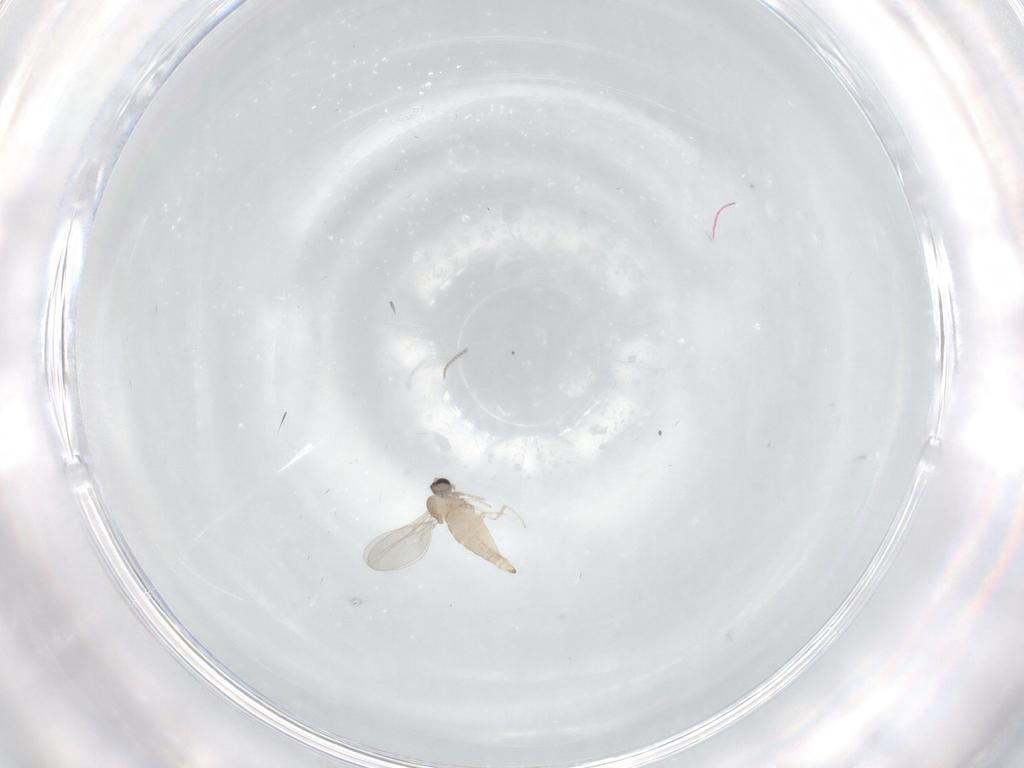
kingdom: Animalia
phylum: Arthropoda
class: Insecta
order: Diptera
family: Cecidomyiidae
